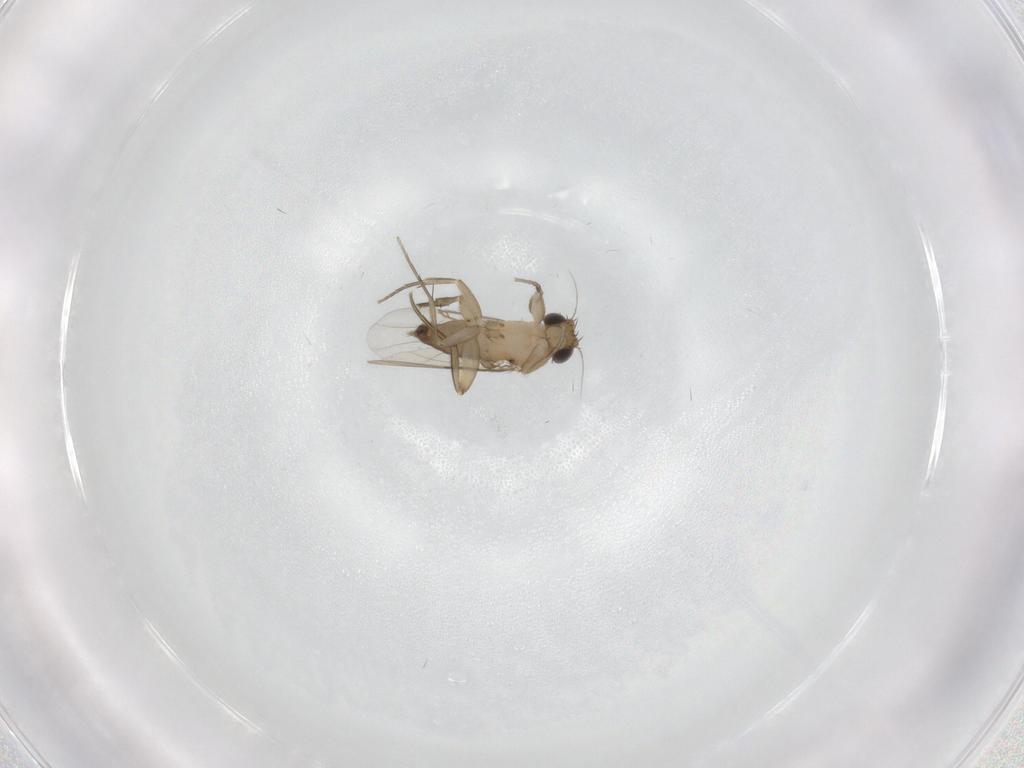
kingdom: Animalia
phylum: Arthropoda
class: Insecta
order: Diptera
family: Phoridae
